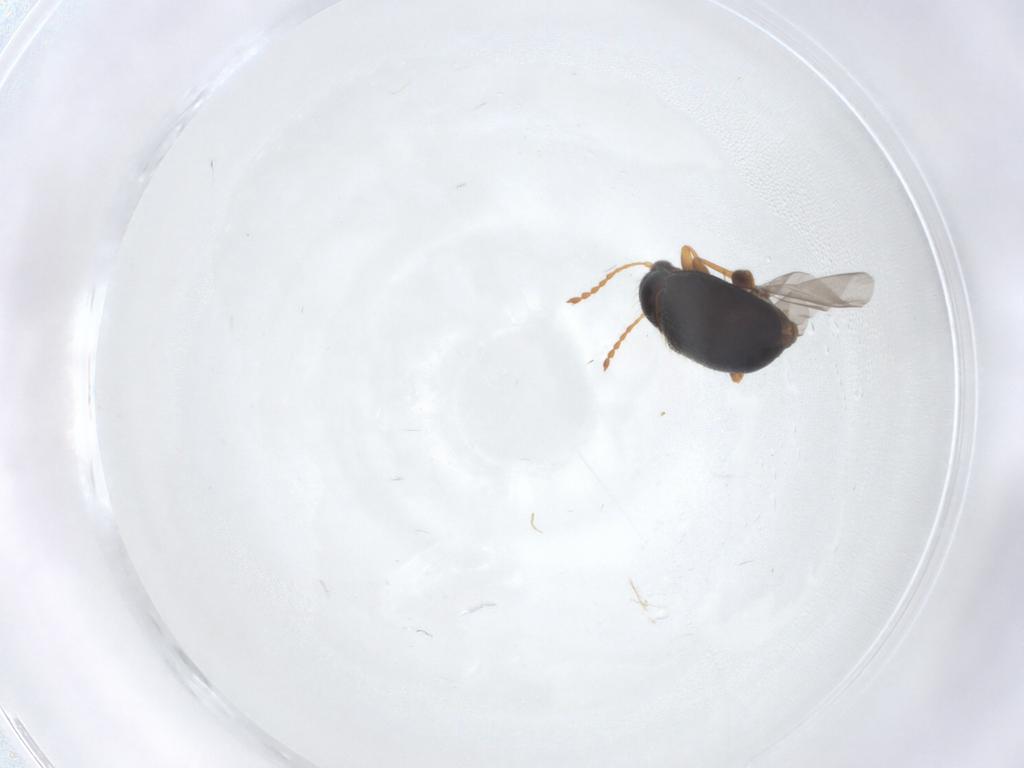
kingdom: Animalia
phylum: Arthropoda
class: Insecta
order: Coleoptera
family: Chrysomelidae
